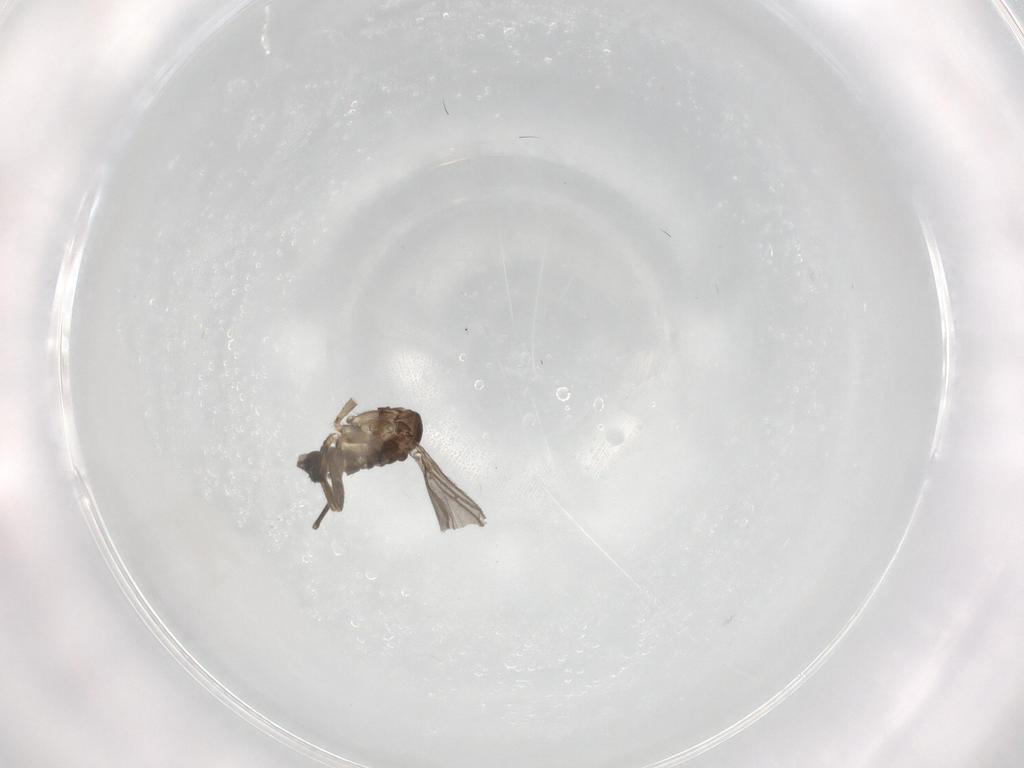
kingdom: Animalia
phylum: Arthropoda
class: Insecta
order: Diptera
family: Sciaridae
